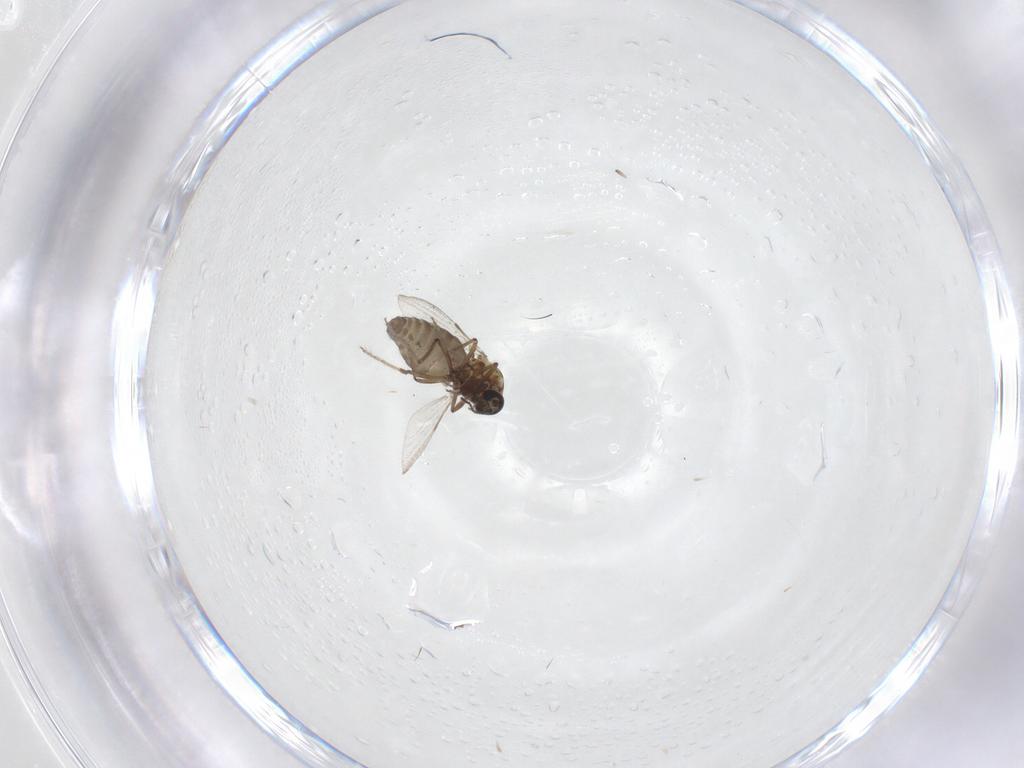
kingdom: Animalia
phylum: Arthropoda
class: Insecta
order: Diptera
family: Ceratopogonidae
